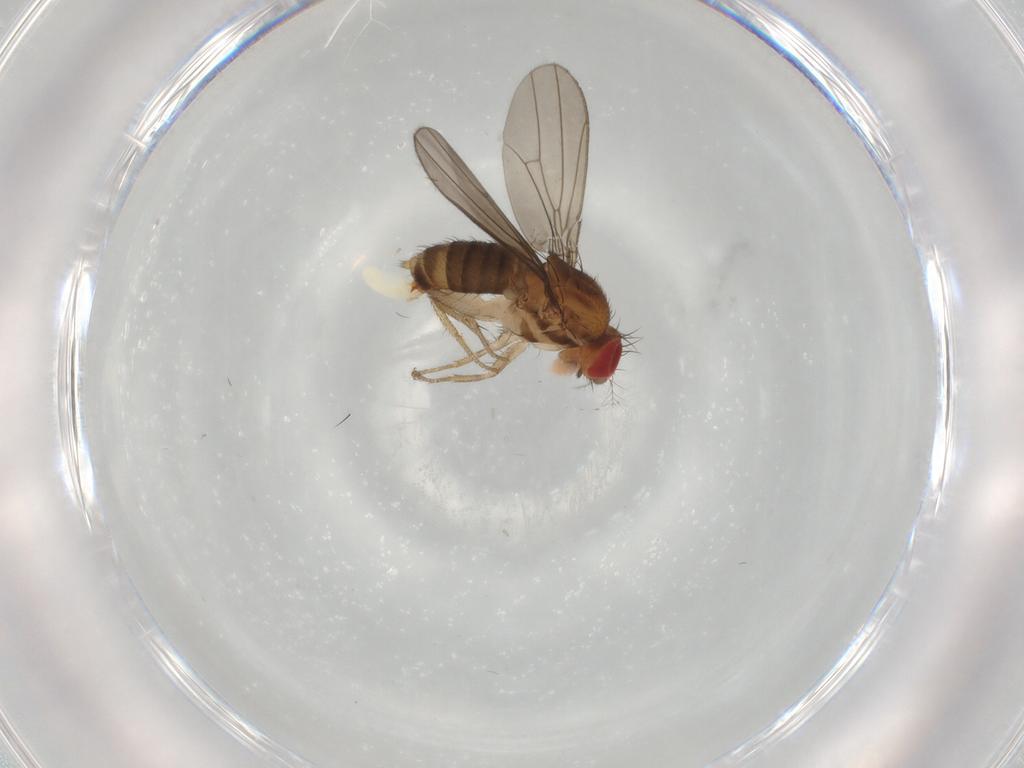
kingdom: Animalia
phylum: Arthropoda
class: Insecta
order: Diptera
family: Drosophilidae
